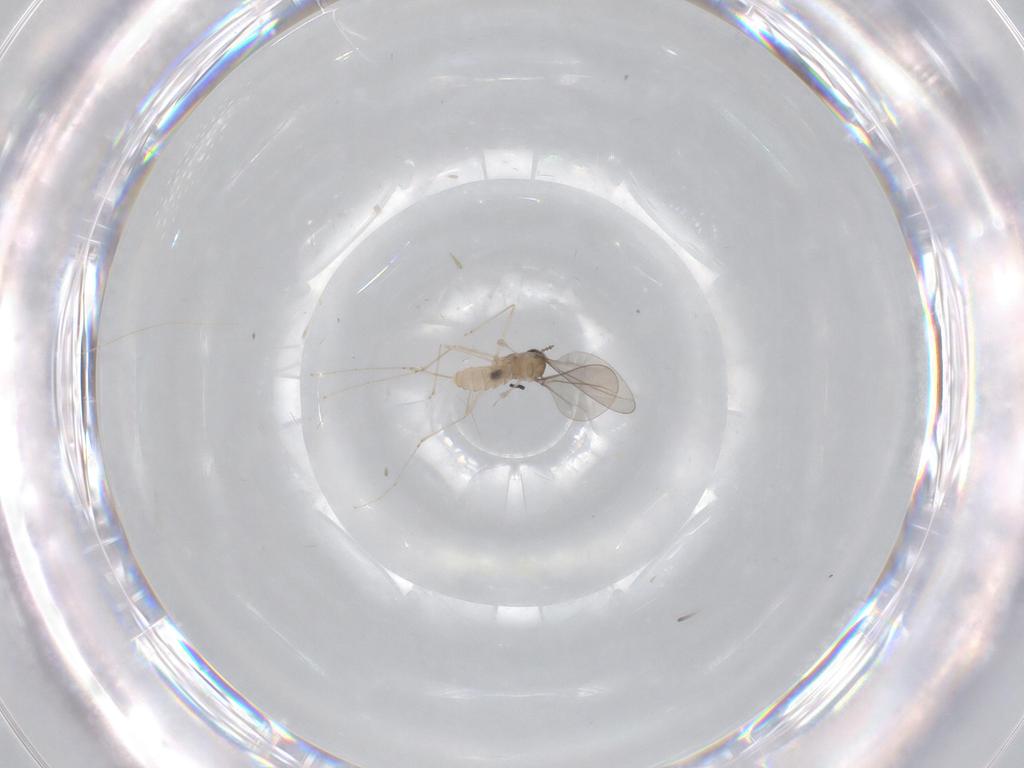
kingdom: Animalia
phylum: Arthropoda
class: Insecta
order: Diptera
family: Cecidomyiidae
